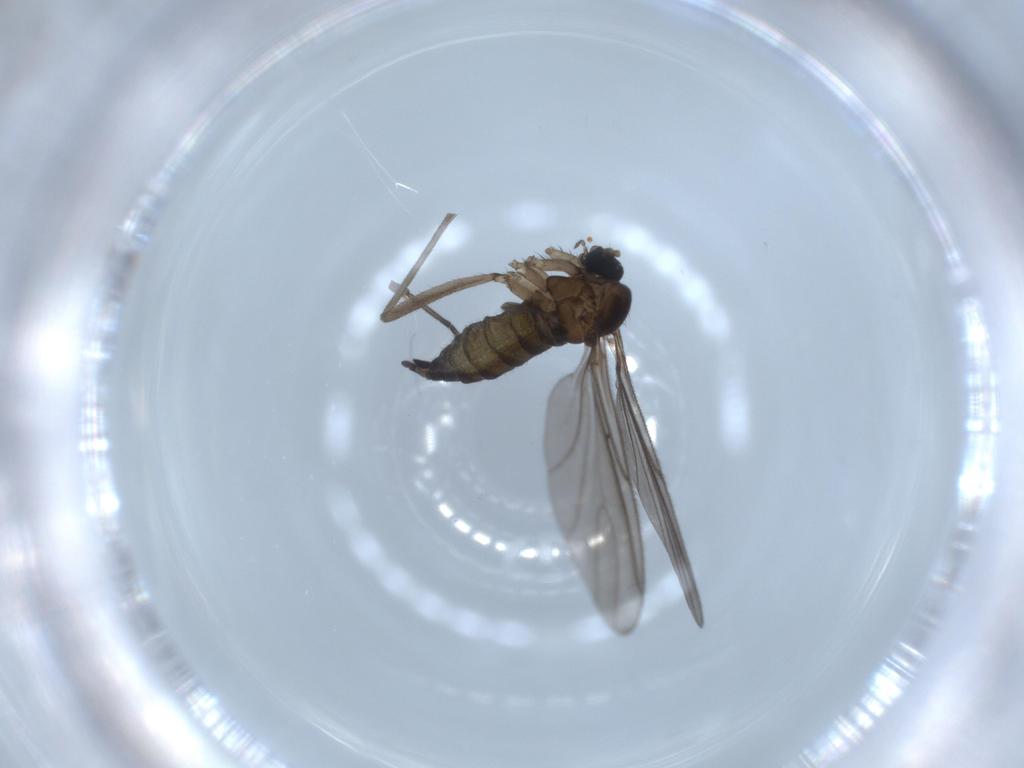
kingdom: Animalia
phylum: Arthropoda
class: Insecta
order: Diptera
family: Sciaridae
